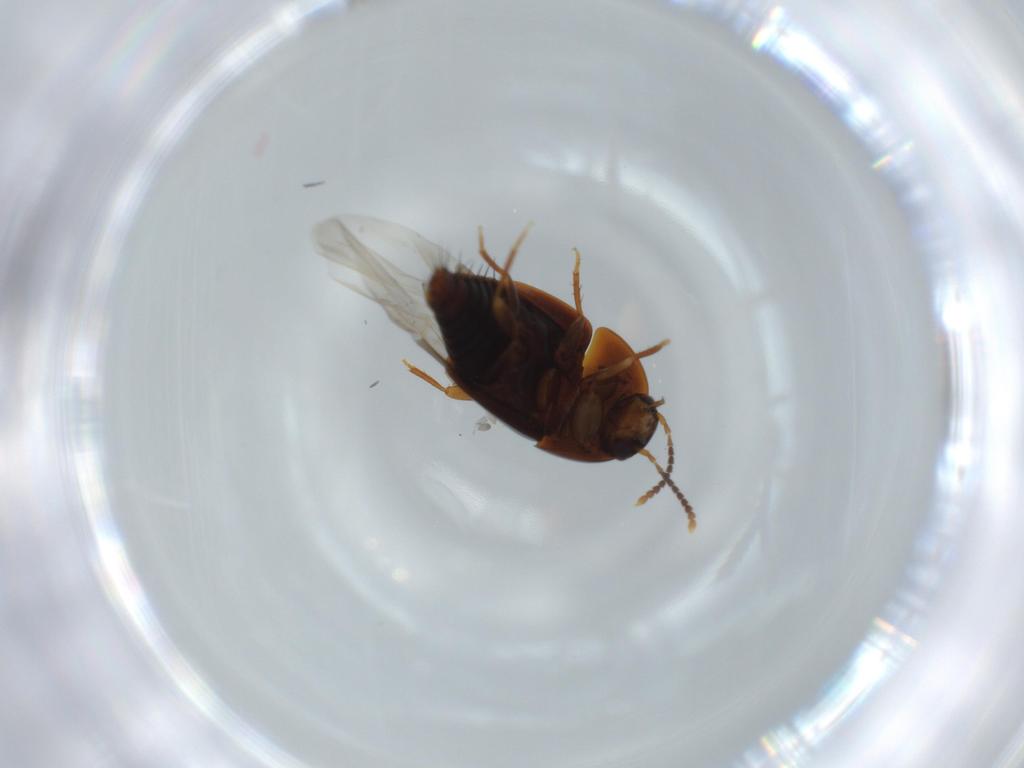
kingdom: Animalia
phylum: Arthropoda
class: Insecta
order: Coleoptera
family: Staphylinidae
